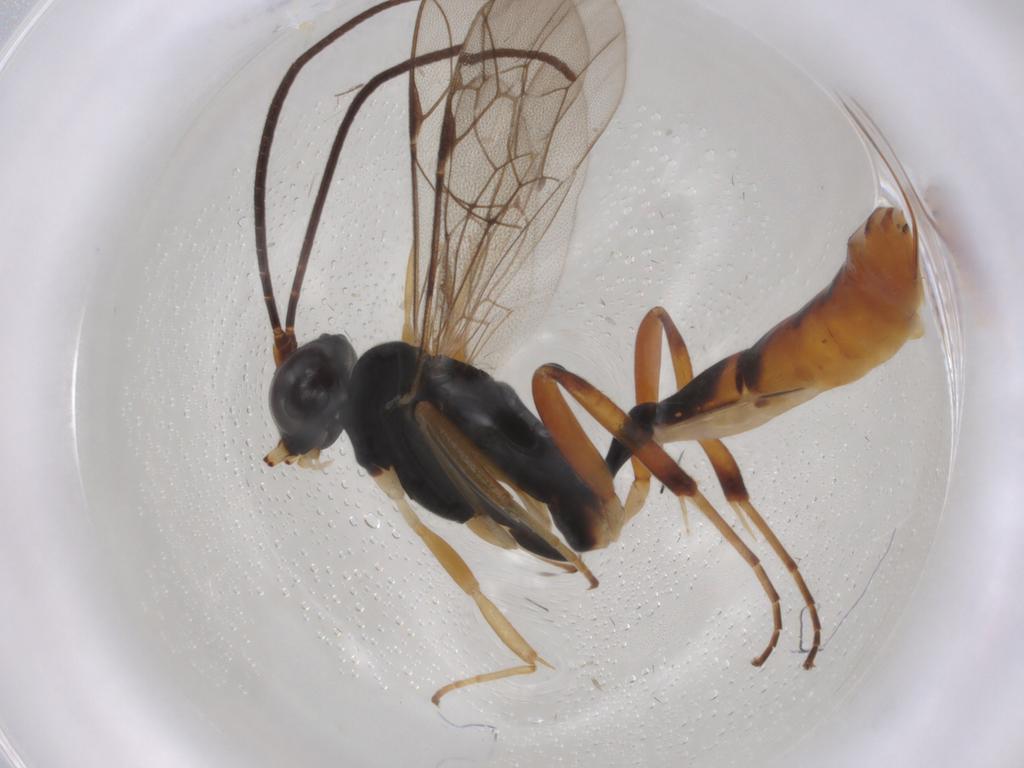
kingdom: Animalia
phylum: Arthropoda
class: Insecta
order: Hymenoptera
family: Ichneumonidae
